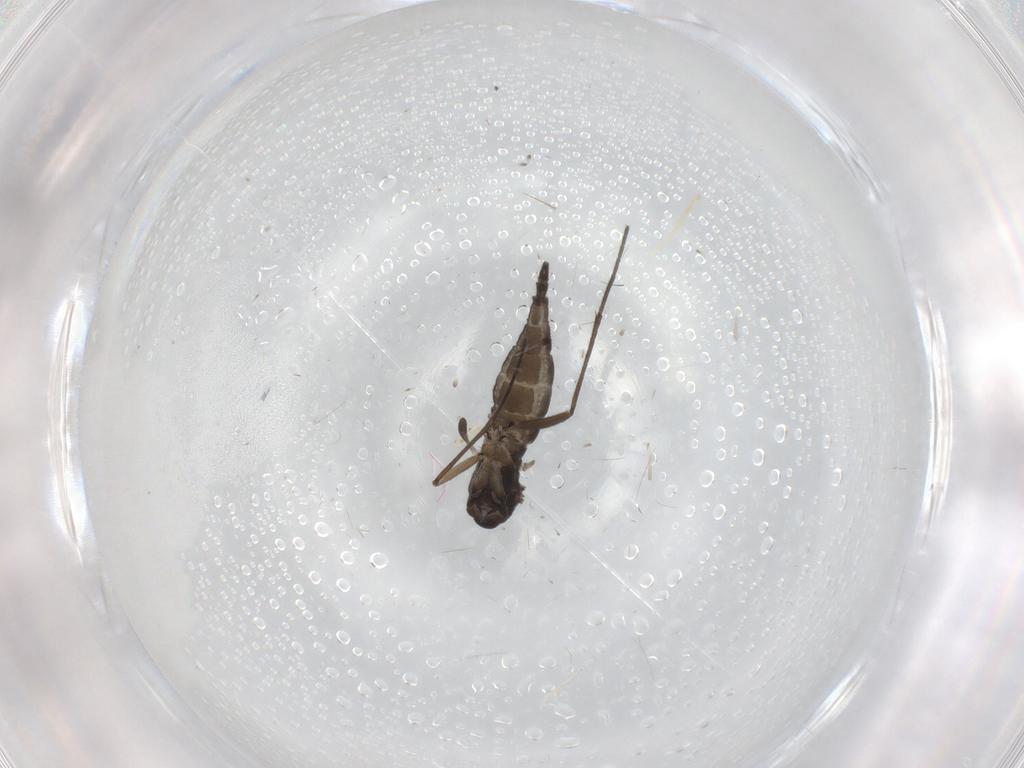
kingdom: Animalia
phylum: Arthropoda
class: Insecta
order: Diptera
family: Sciaridae
